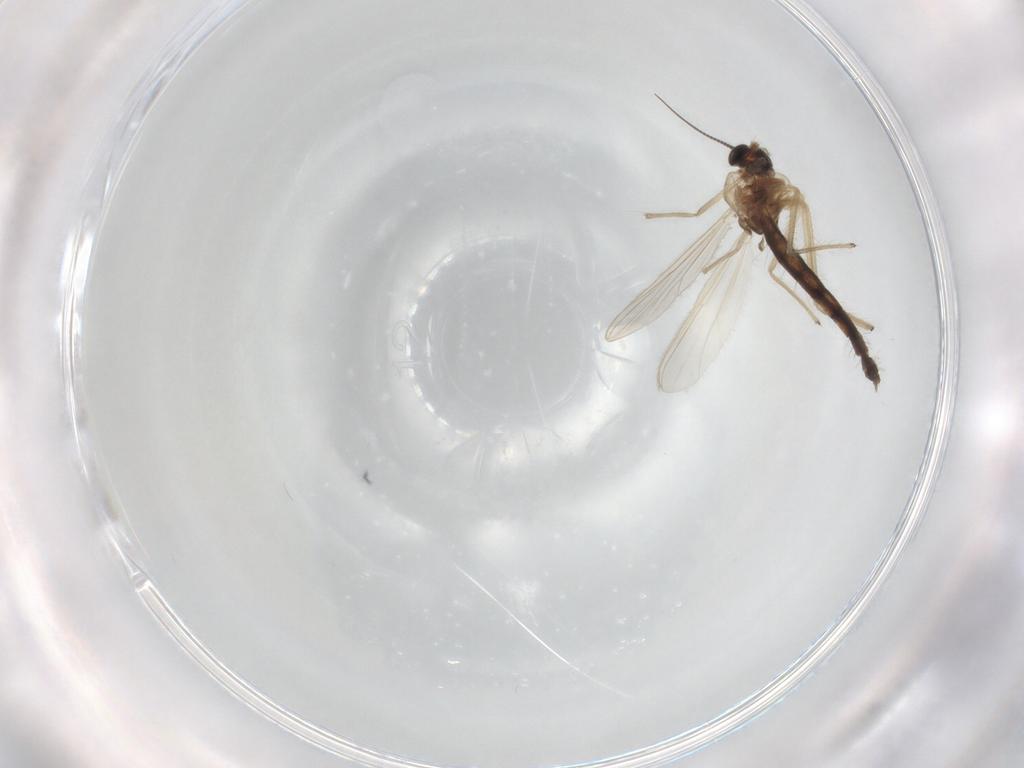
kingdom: Animalia
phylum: Arthropoda
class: Insecta
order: Diptera
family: Chironomidae
